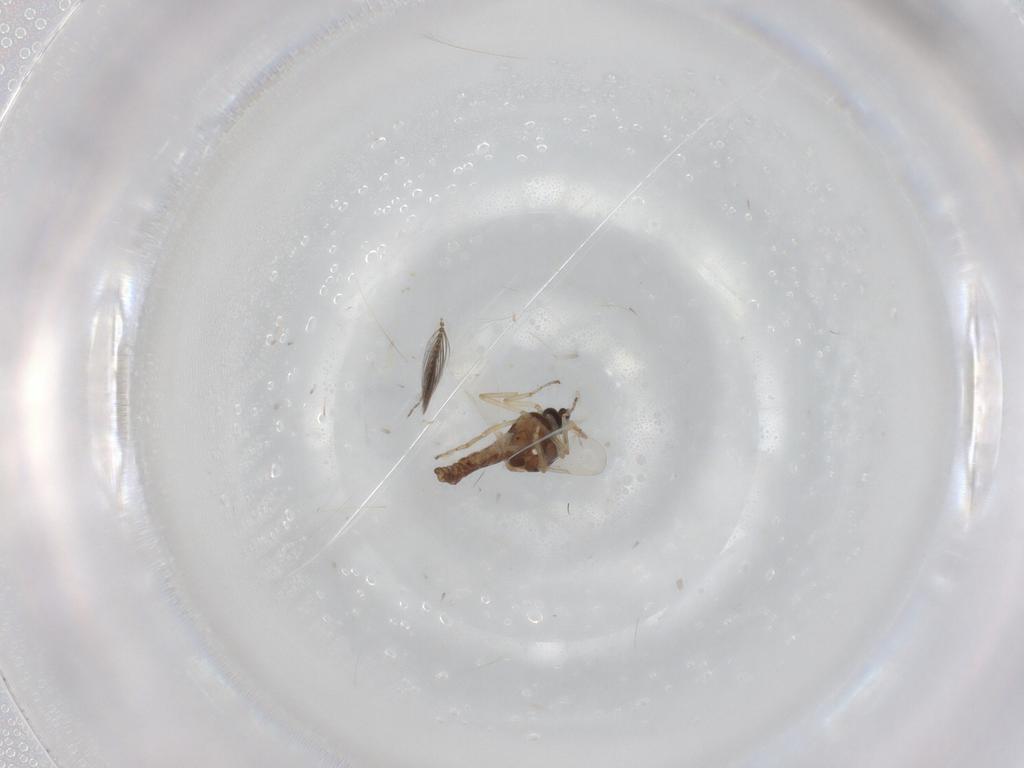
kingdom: Animalia
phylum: Arthropoda
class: Insecta
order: Diptera
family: Ceratopogonidae
